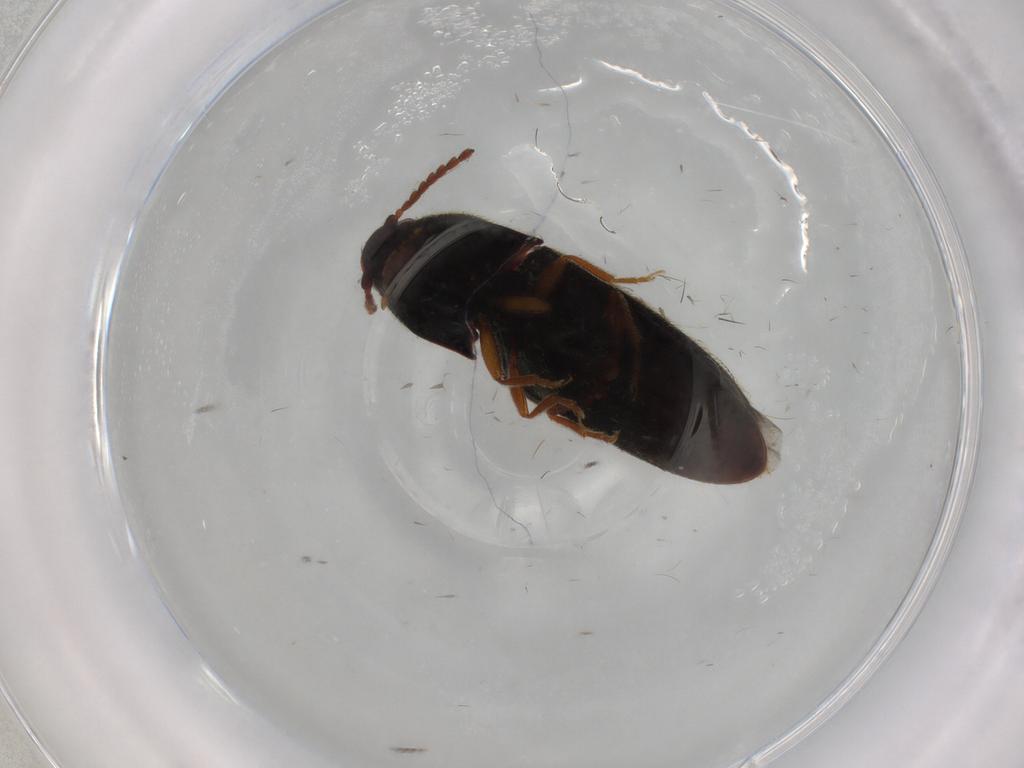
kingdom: Animalia
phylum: Arthropoda
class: Insecta
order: Coleoptera
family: Elateridae
